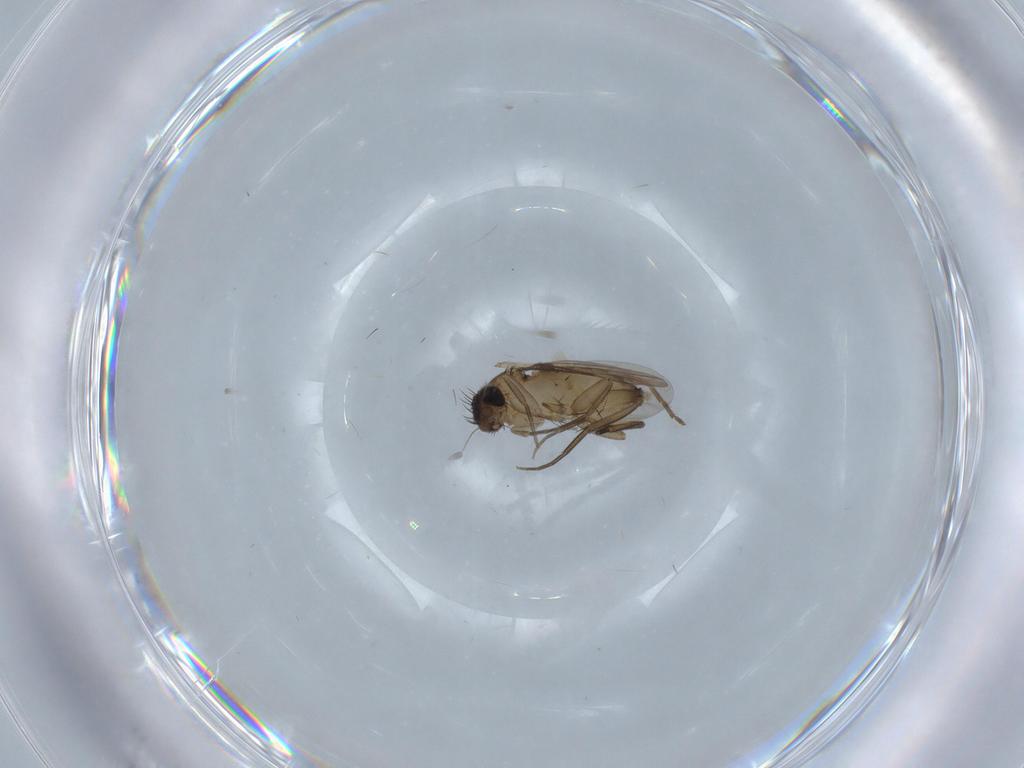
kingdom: Animalia
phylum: Arthropoda
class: Insecta
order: Diptera
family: Phoridae
